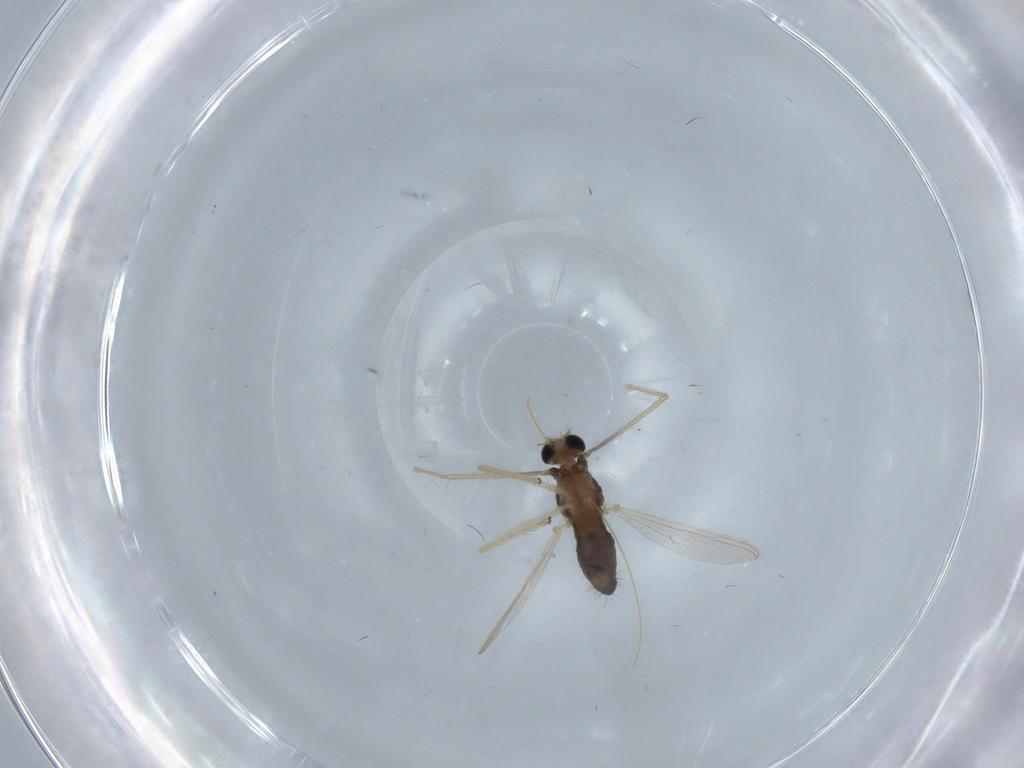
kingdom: Animalia
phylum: Arthropoda
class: Insecta
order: Diptera
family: Chironomidae
